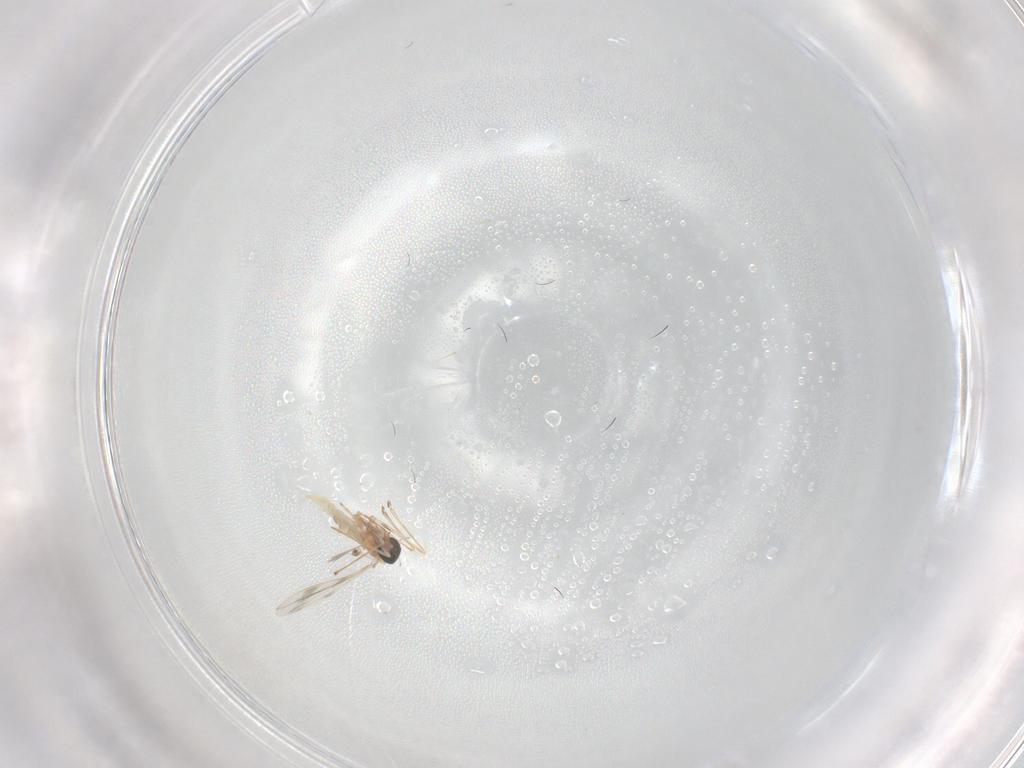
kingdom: Animalia
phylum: Arthropoda
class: Insecta
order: Diptera
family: Cecidomyiidae
